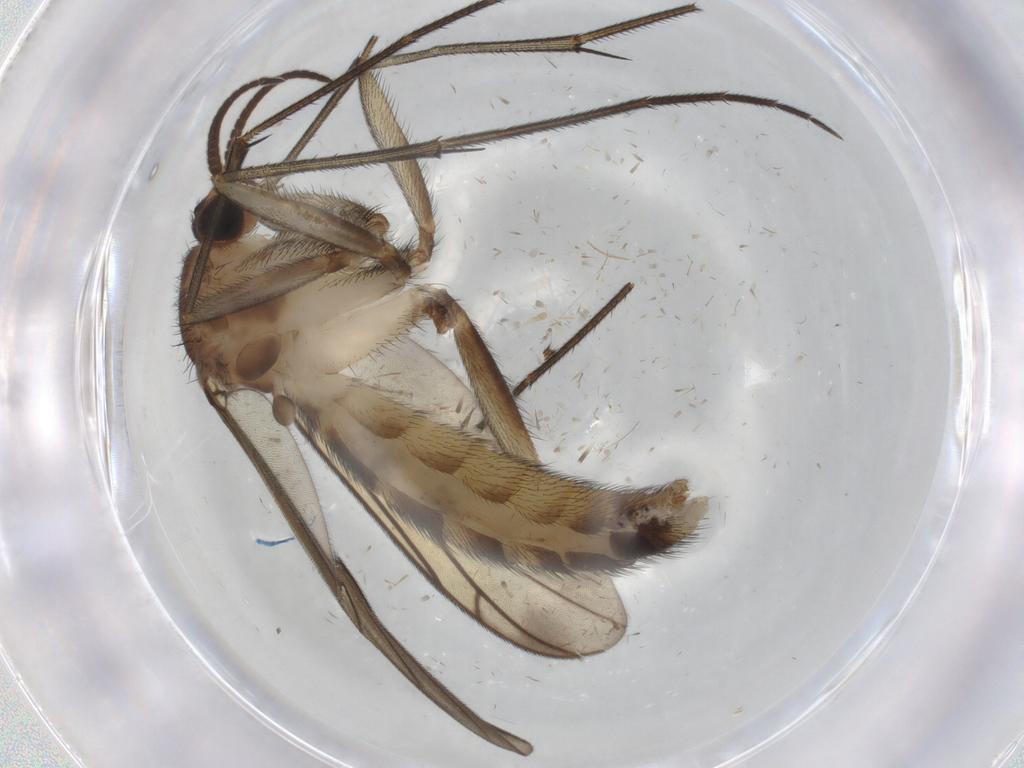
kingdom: Animalia
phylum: Arthropoda
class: Insecta
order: Diptera
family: Keroplatidae
